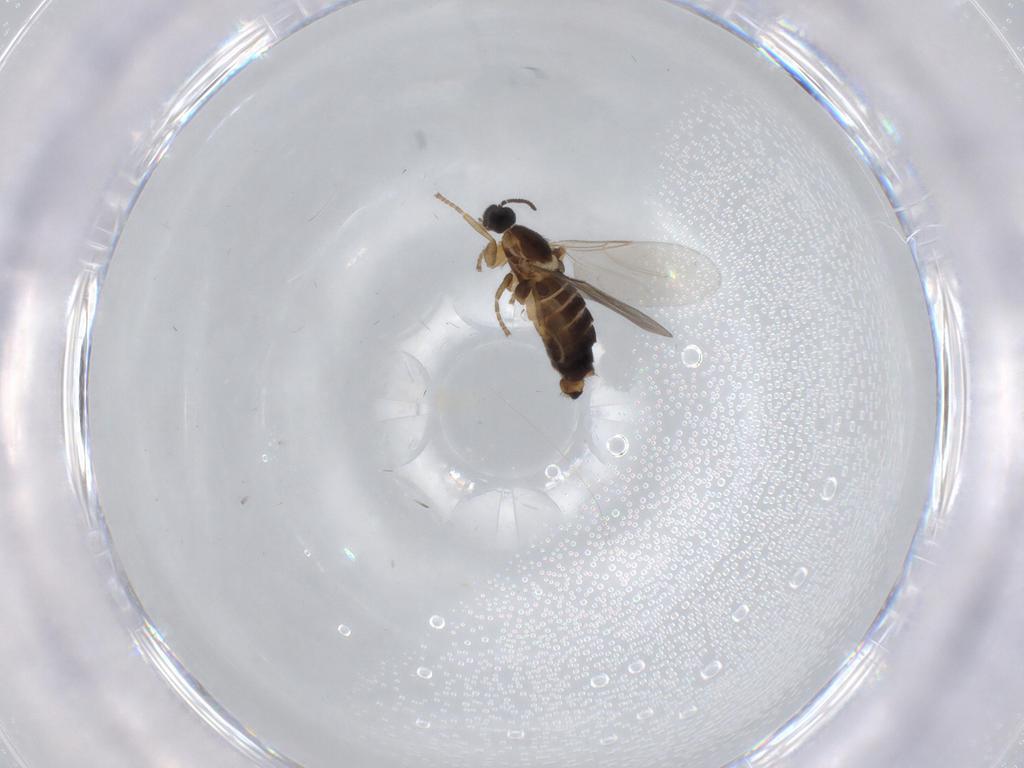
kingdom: Animalia
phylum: Arthropoda
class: Insecta
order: Diptera
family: Scatopsidae
